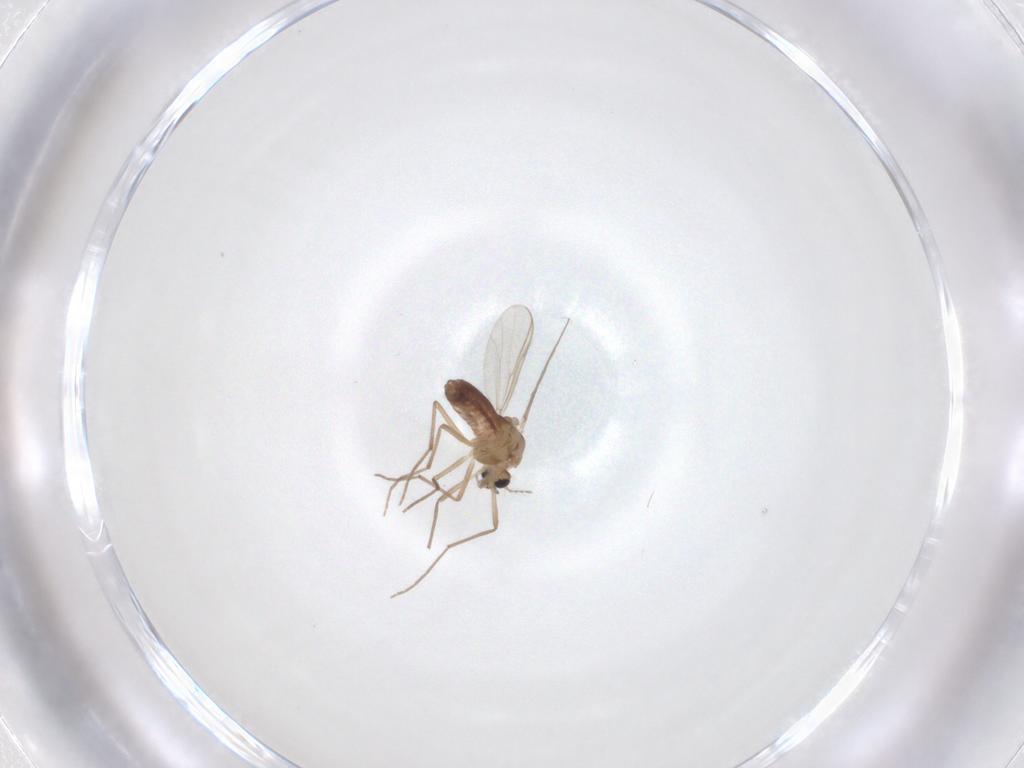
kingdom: Animalia
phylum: Arthropoda
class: Insecta
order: Diptera
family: Chironomidae
